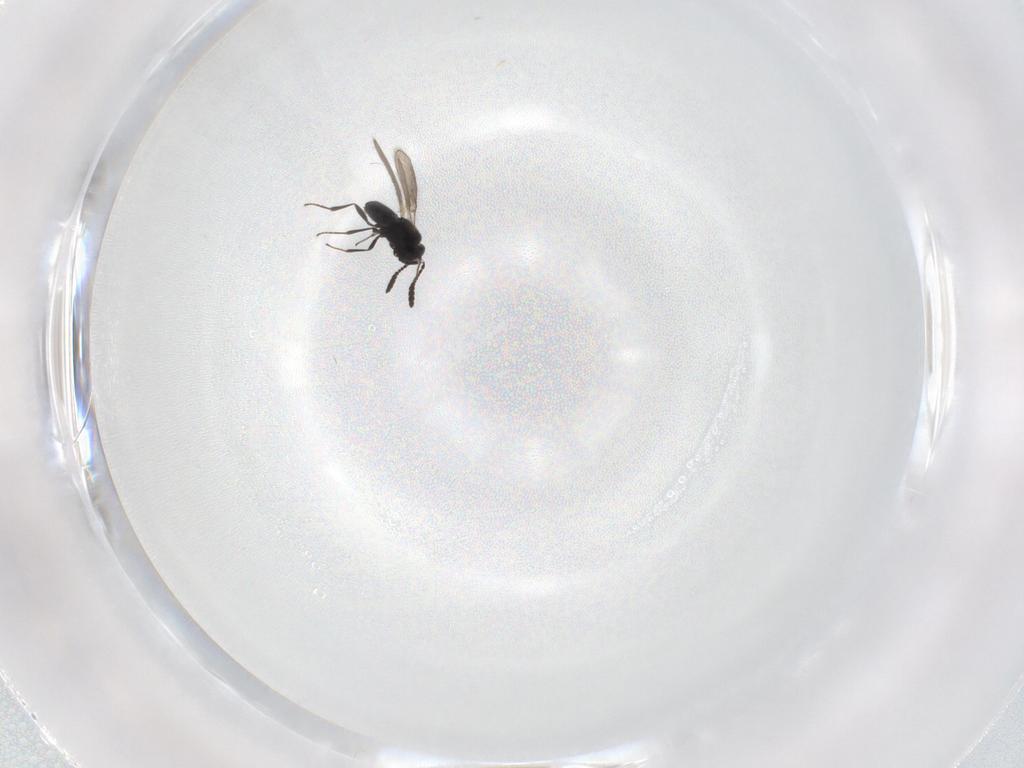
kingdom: Animalia
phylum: Arthropoda
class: Insecta
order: Hymenoptera
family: Scelionidae
